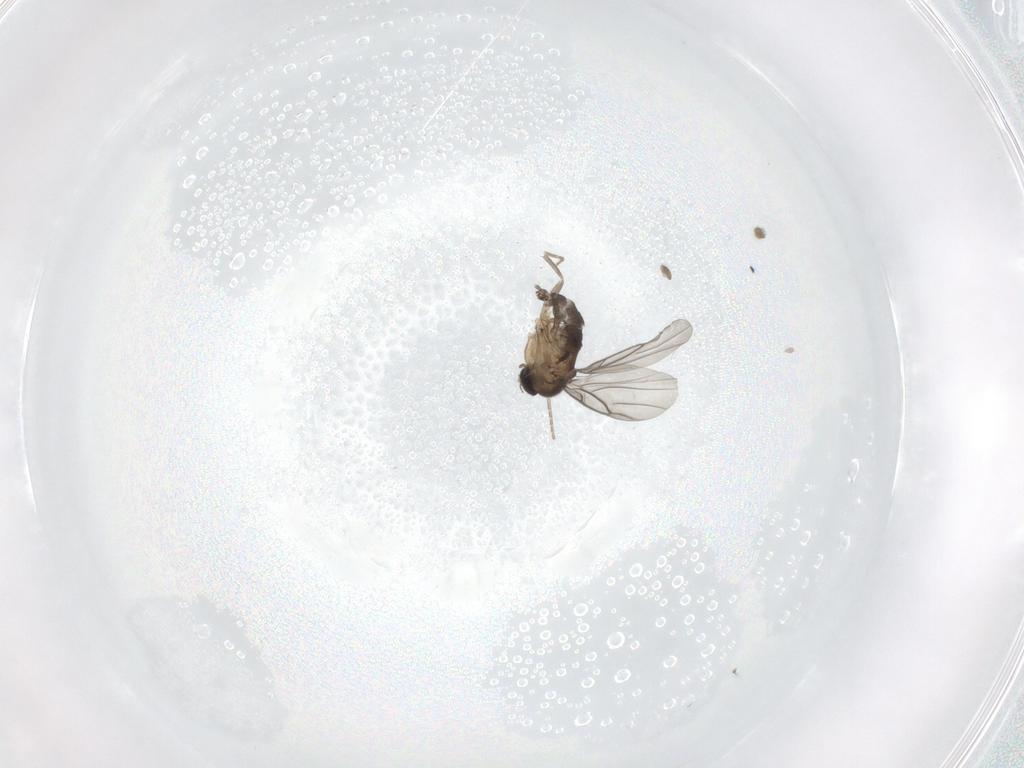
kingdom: Animalia
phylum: Arthropoda
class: Insecta
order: Diptera
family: Phoridae
